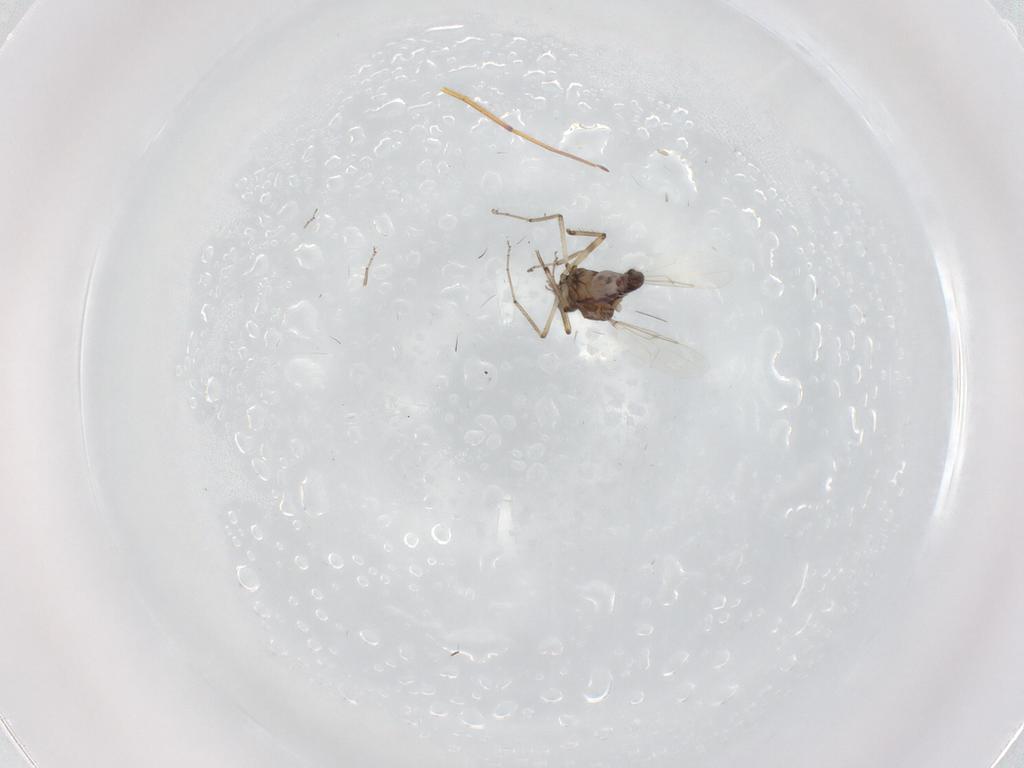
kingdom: Animalia
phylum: Arthropoda
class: Insecta
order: Diptera
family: Ceratopogonidae
